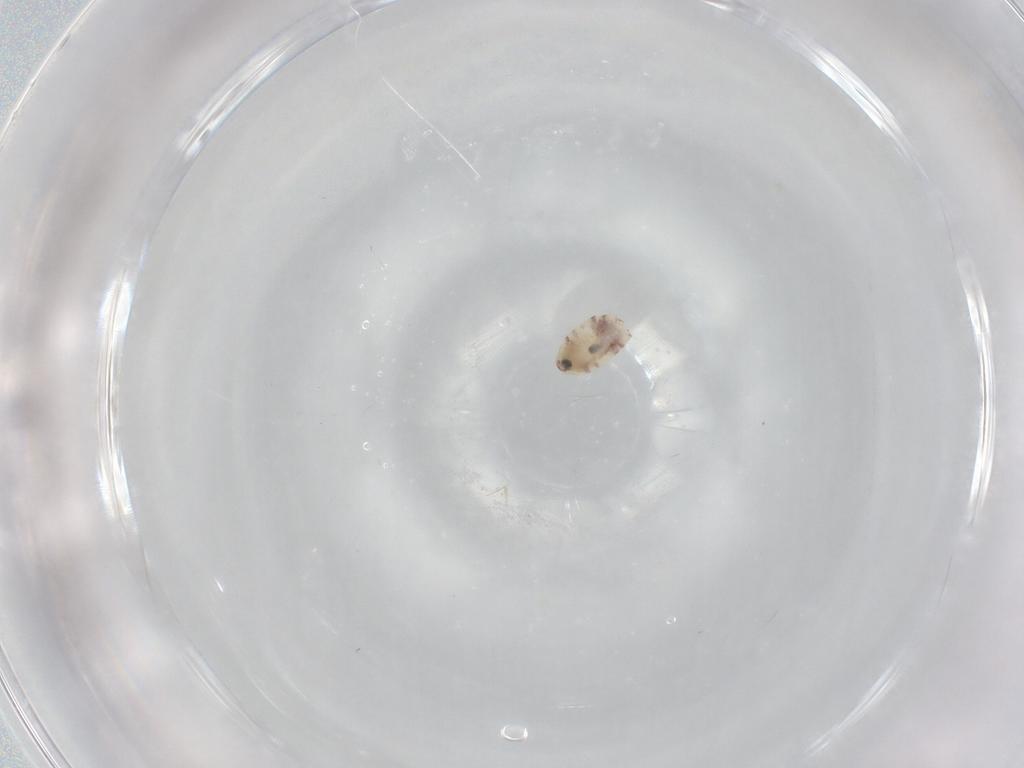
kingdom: Animalia
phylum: Arthropoda
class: Insecta
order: Psocodea
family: Liposcelididae
